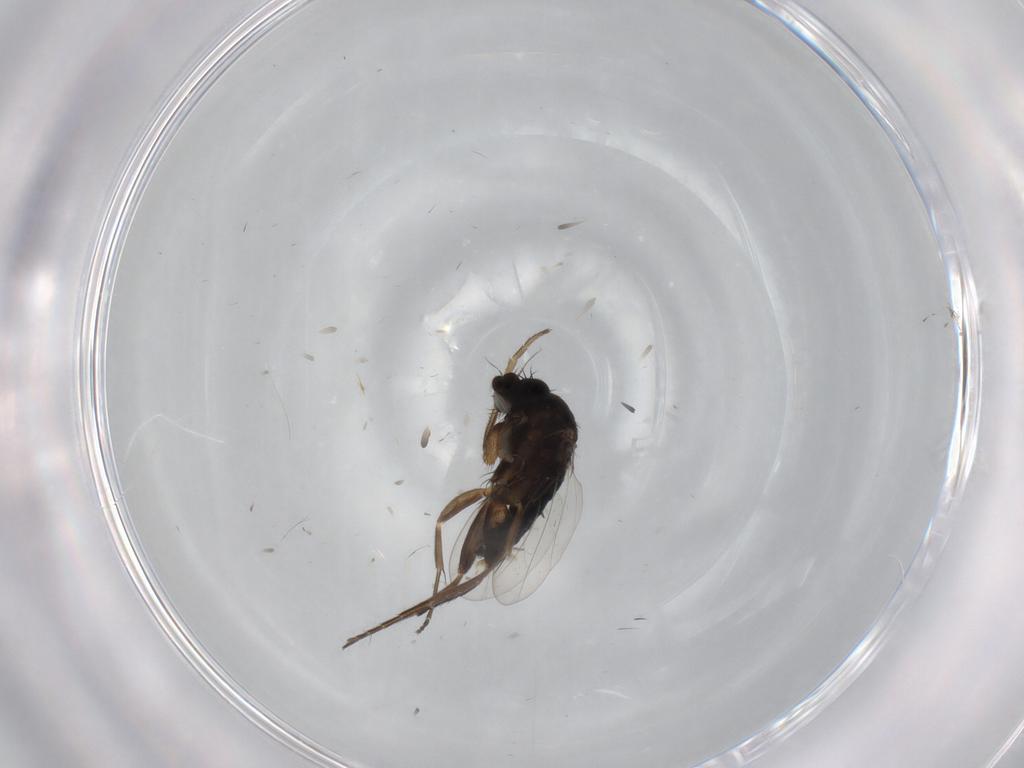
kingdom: Animalia
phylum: Arthropoda
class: Insecta
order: Diptera
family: Phoridae
